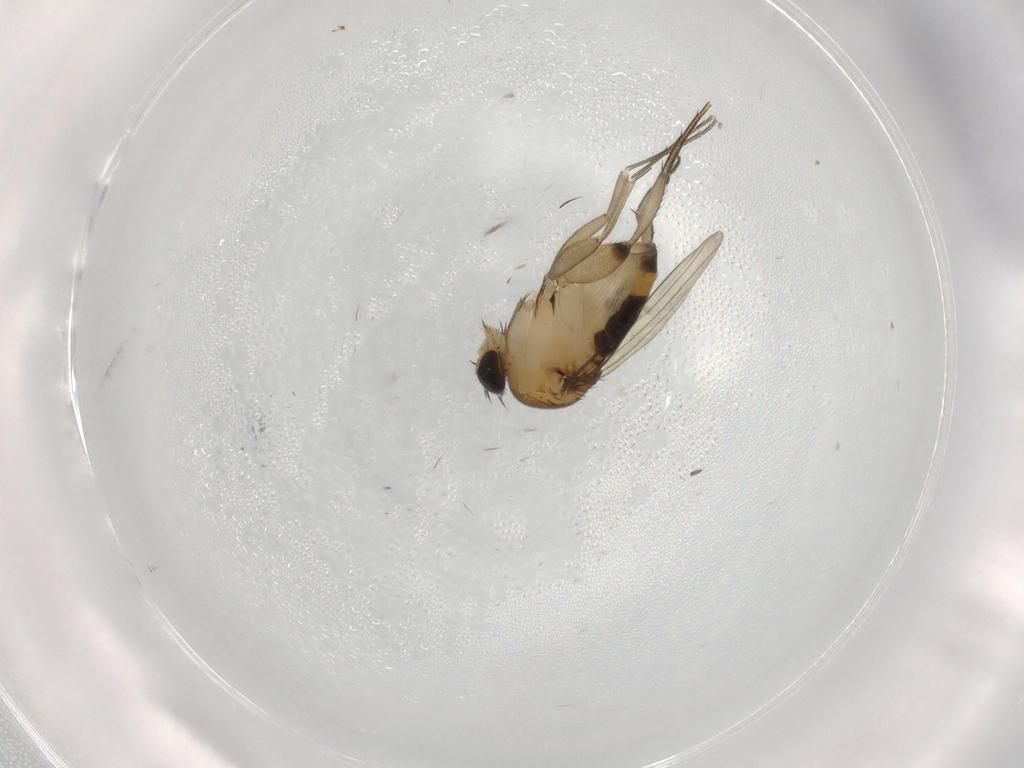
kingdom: Animalia
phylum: Arthropoda
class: Insecta
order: Diptera
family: Phoridae
